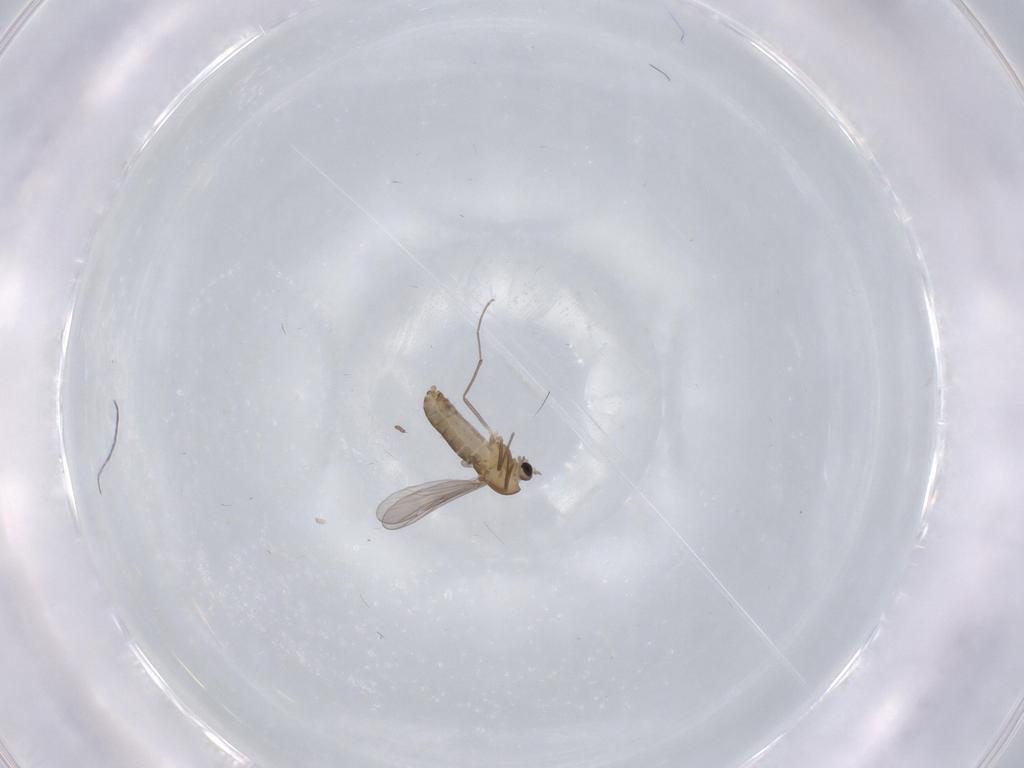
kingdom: Animalia
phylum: Arthropoda
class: Insecta
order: Diptera
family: Chironomidae
